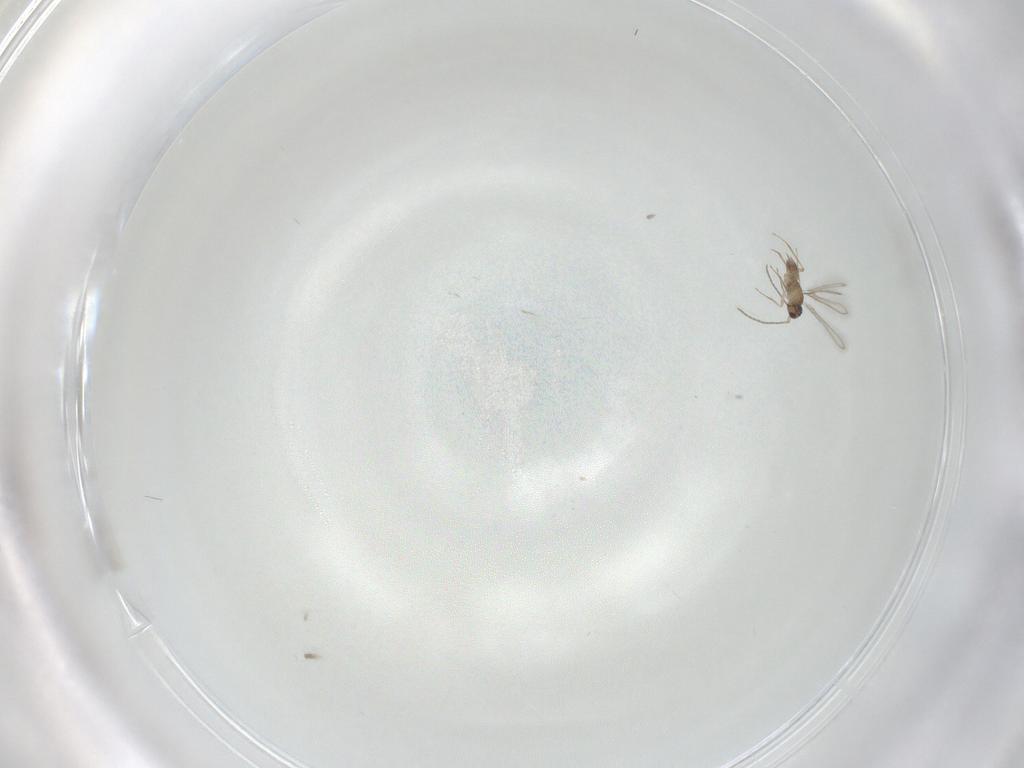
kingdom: Animalia
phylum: Arthropoda
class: Insecta
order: Hymenoptera
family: Mymaridae
